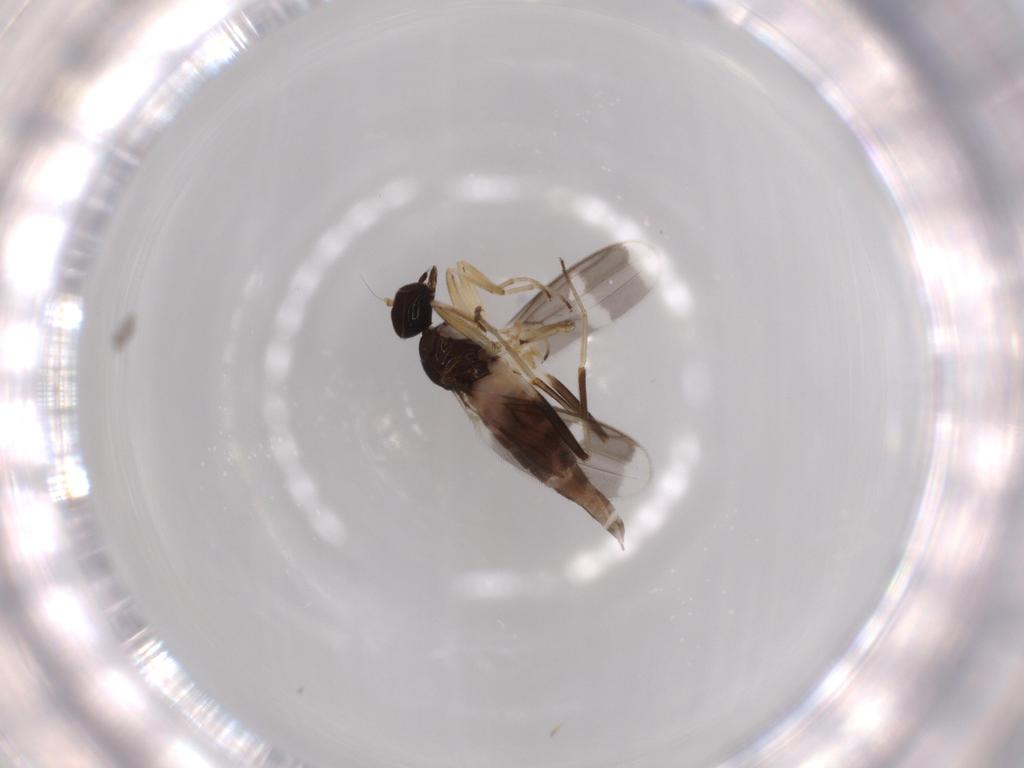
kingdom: Animalia
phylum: Arthropoda
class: Insecta
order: Diptera
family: Hybotidae
